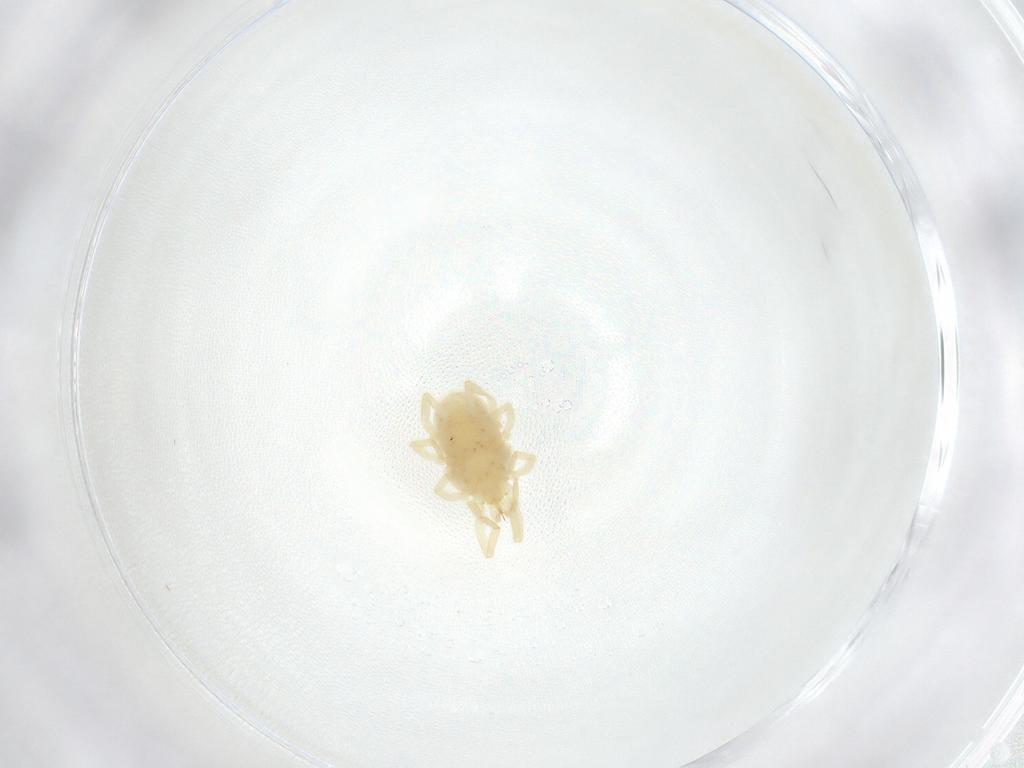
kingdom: Animalia
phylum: Arthropoda
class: Arachnida
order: Trombidiformes
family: Erythraeidae
